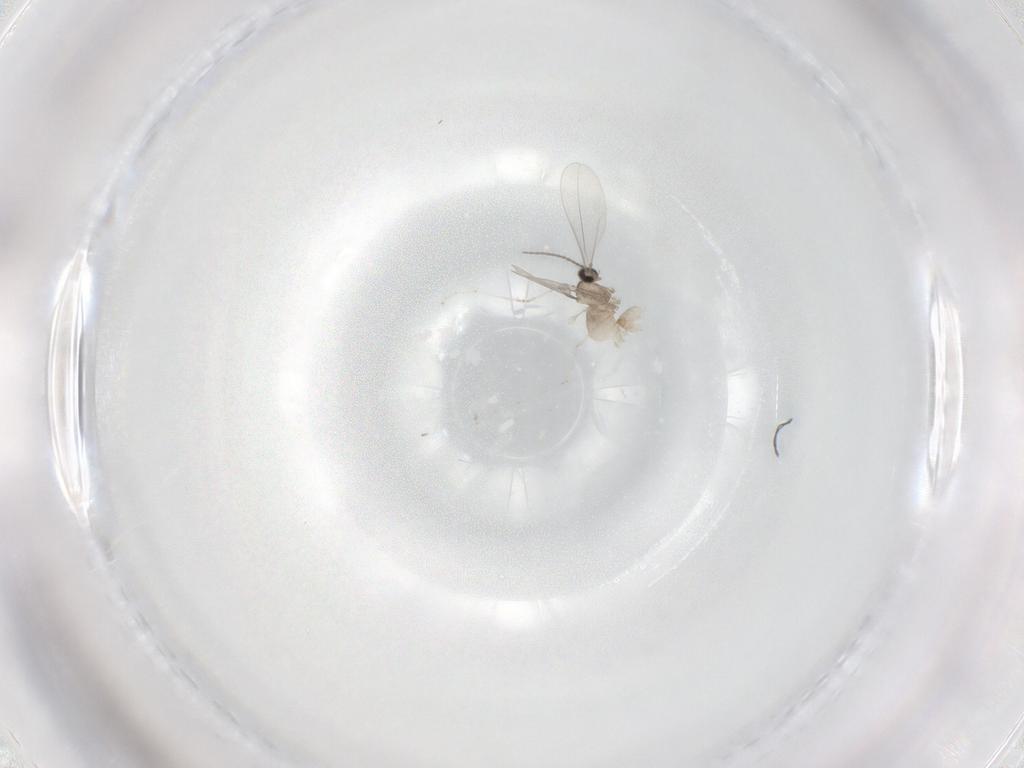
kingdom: Animalia
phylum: Arthropoda
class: Insecta
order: Diptera
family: Cecidomyiidae
